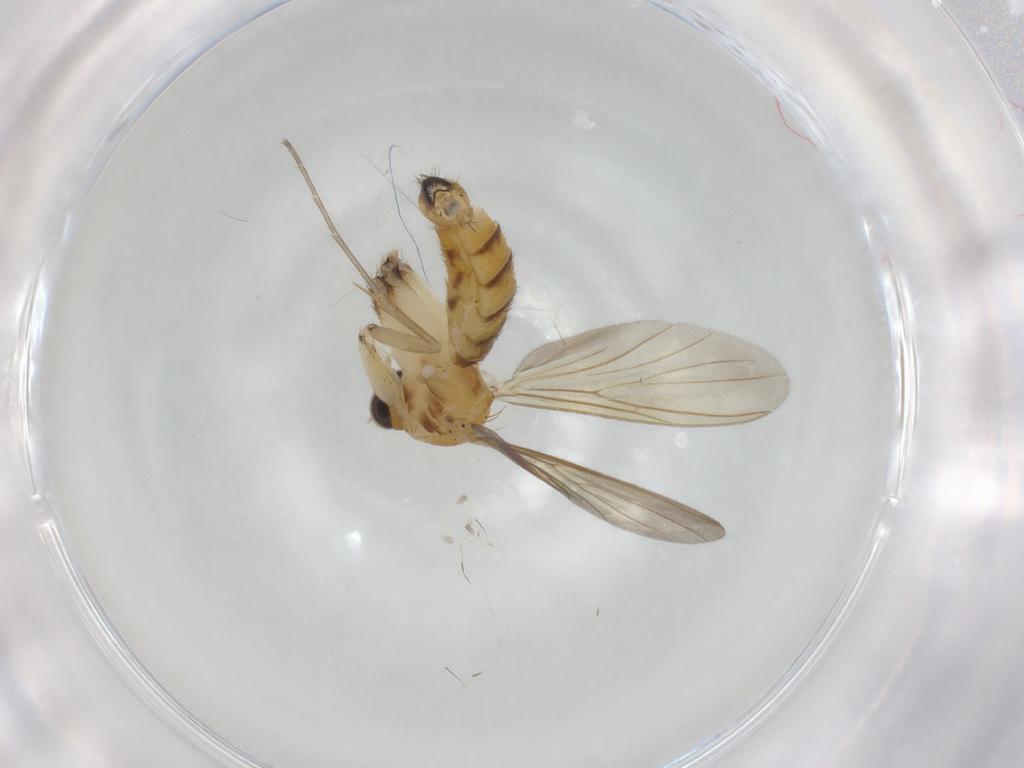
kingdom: Animalia
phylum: Arthropoda
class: Insecta
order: Diptera
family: Mycetophilidae
